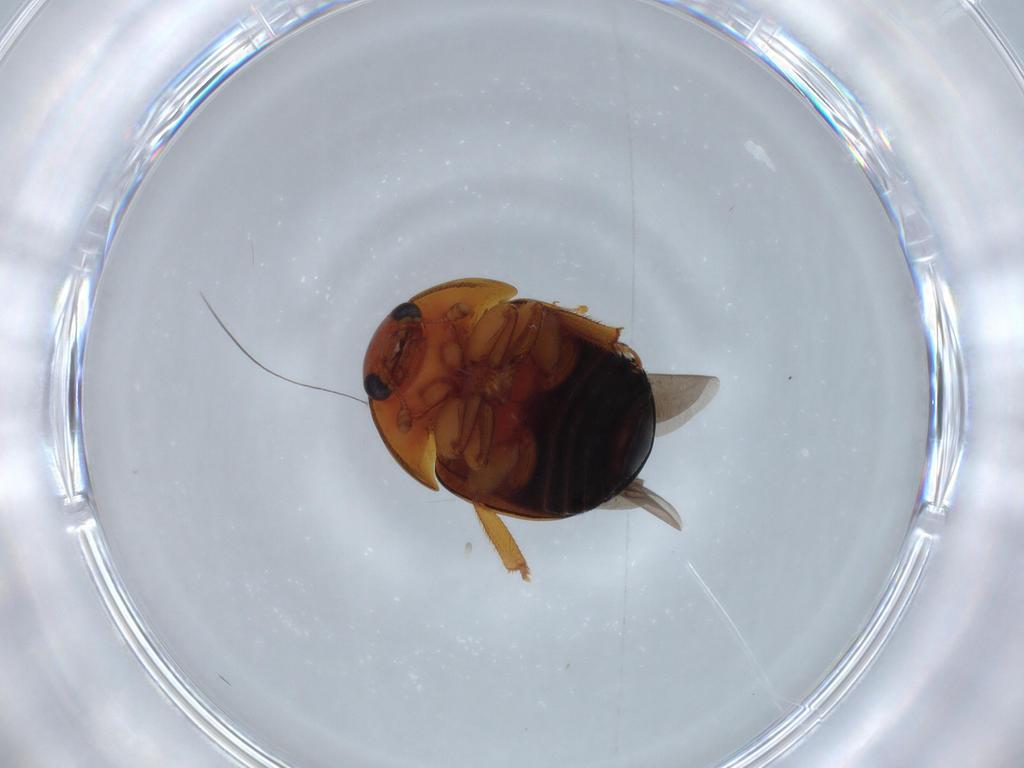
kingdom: Animalia
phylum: Arthropoda
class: Insecta
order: Coleoptera
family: Nitidulidae
